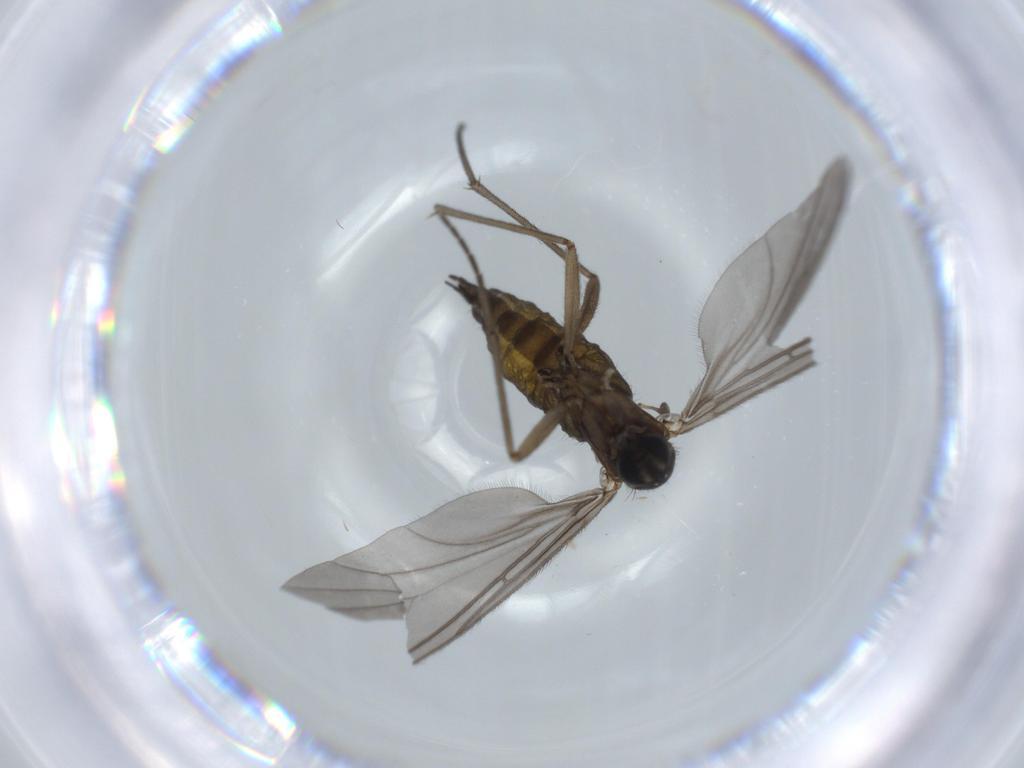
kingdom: Animalia
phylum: Arthropoda
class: Insecta
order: Diptera
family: Sciaridae
